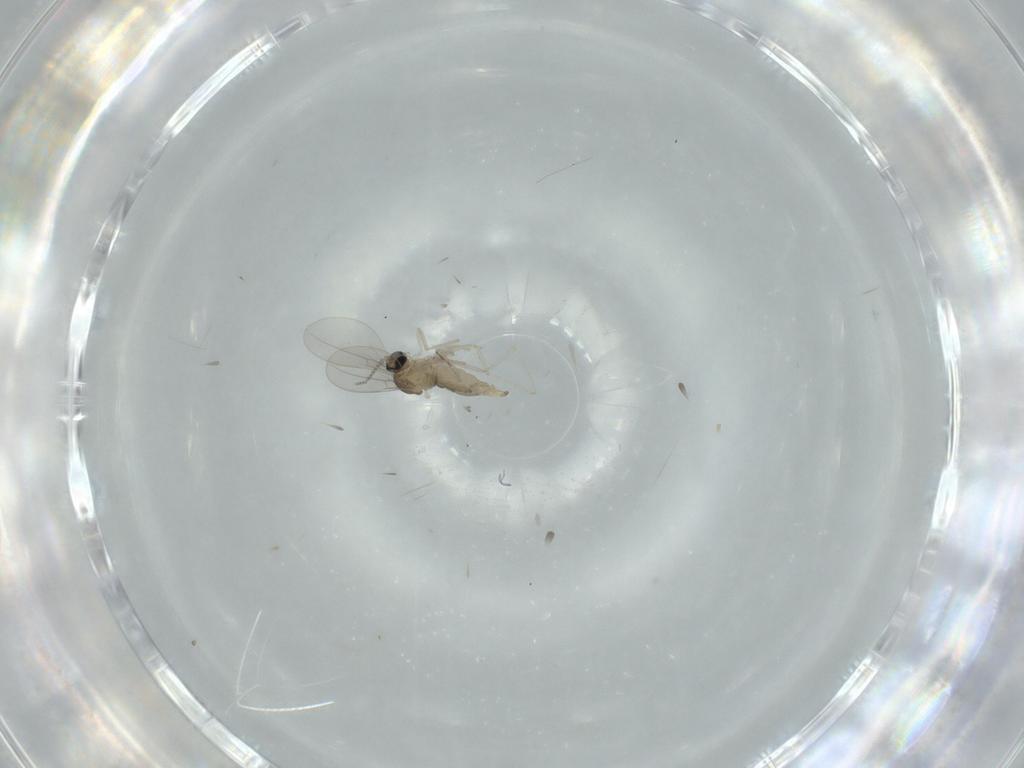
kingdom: Animalia
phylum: Arthropoda
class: Insecta
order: Diptera
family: Cecidomyiidae
